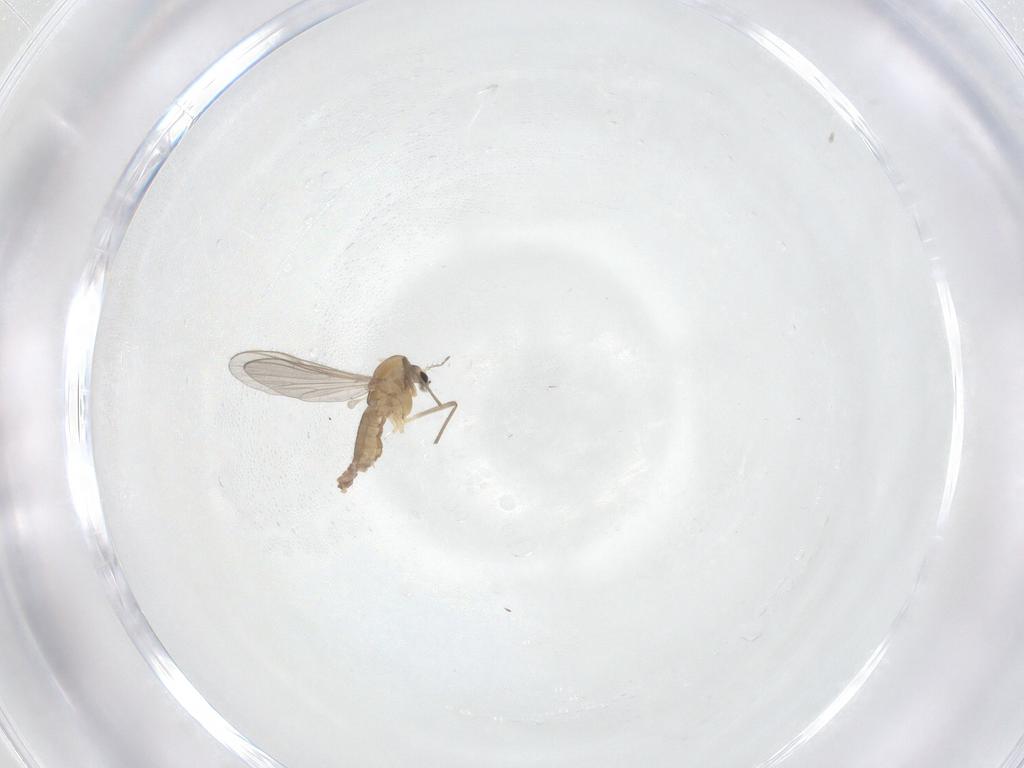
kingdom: Animalia
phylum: Arthropoda
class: Insecta
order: Diptera
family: Chironomidae
